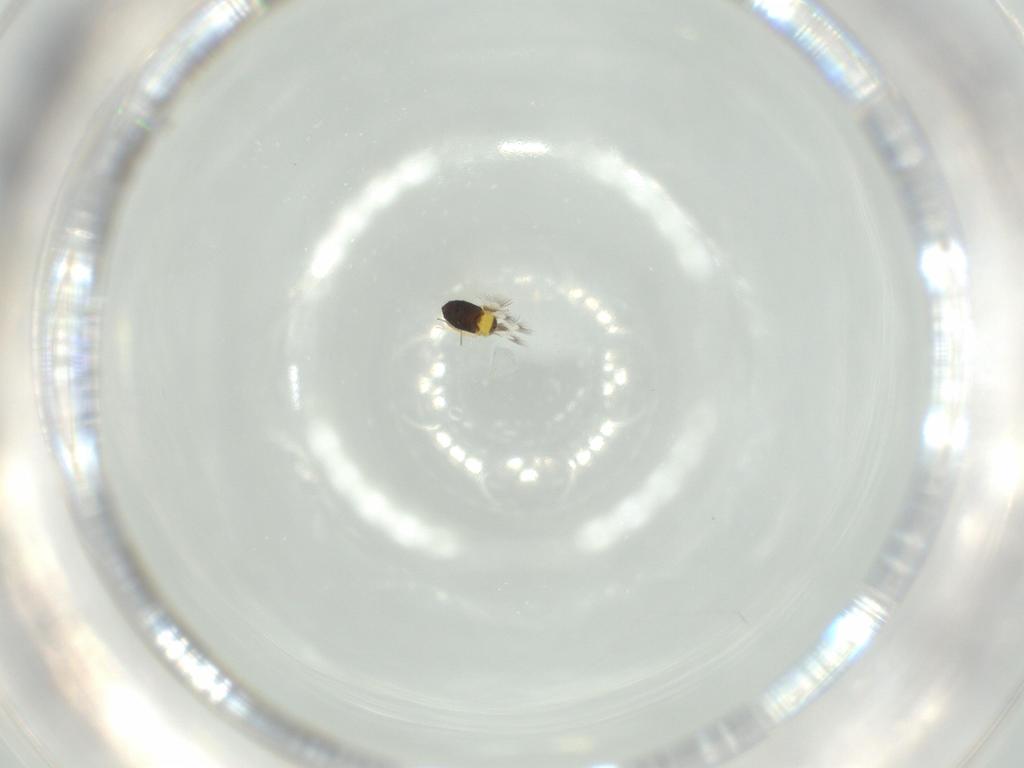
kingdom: Animalia
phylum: Arthropoda
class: Insecta
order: Hymenoptera
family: Signiphoridae
